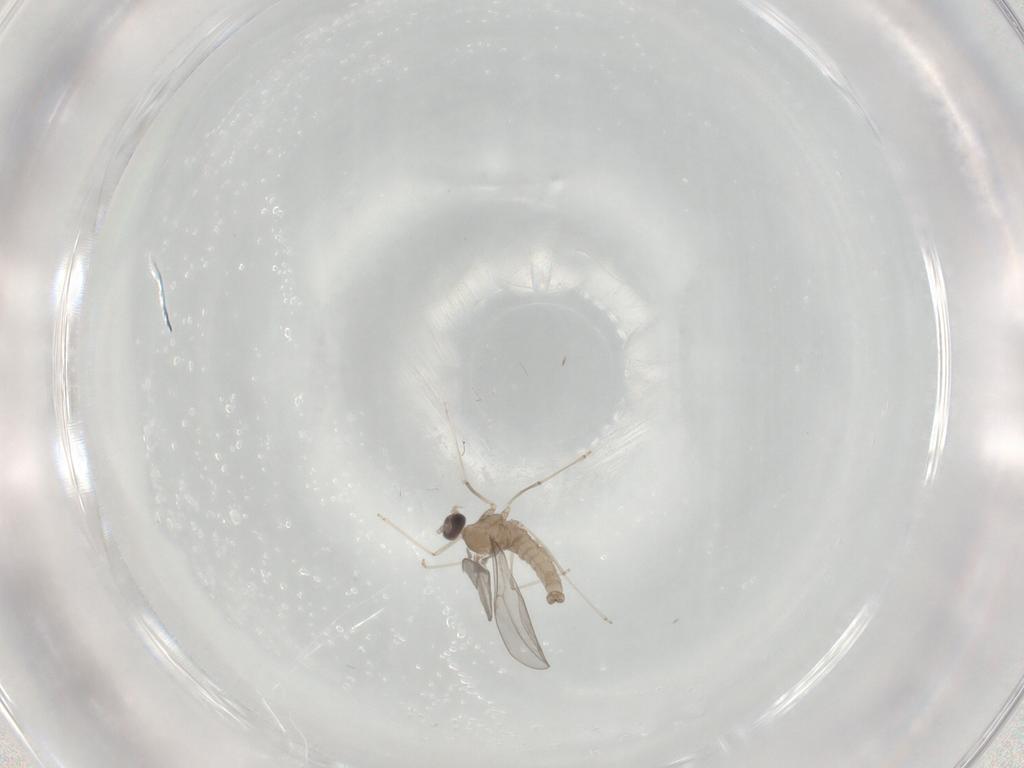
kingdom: Animalia
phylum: Arthropoda
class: Insecta
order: Diptera
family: Cecidomyiidae
